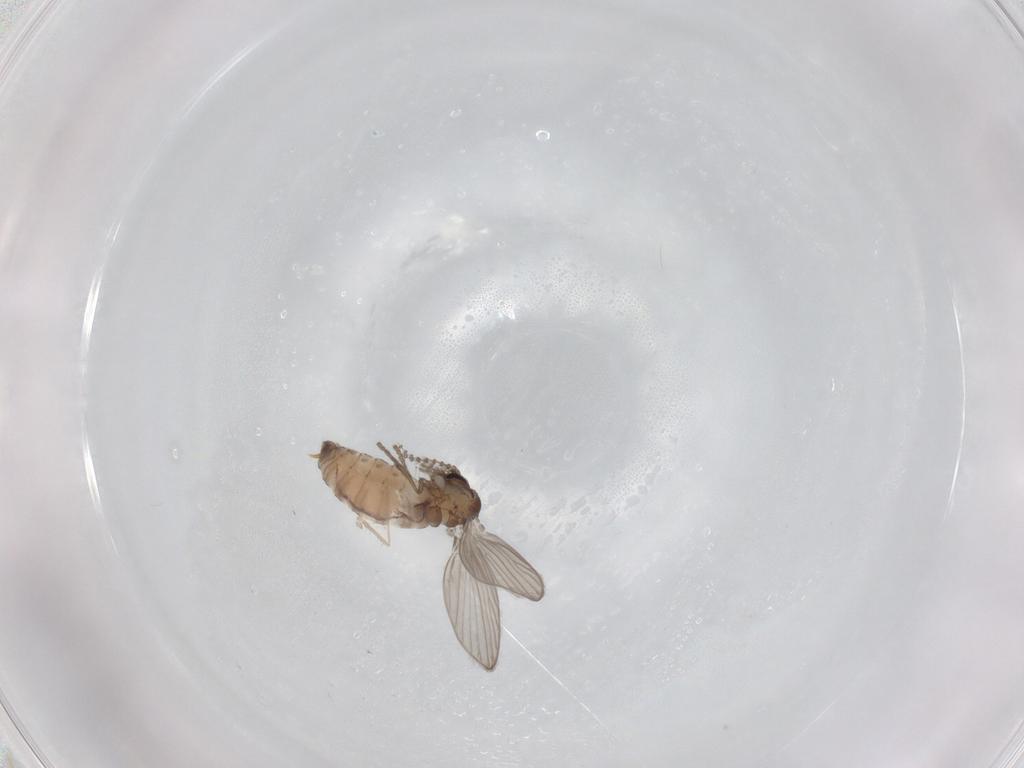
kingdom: Animalia
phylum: Arthropoda
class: Insecta
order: Diptera
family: Psychodidae
